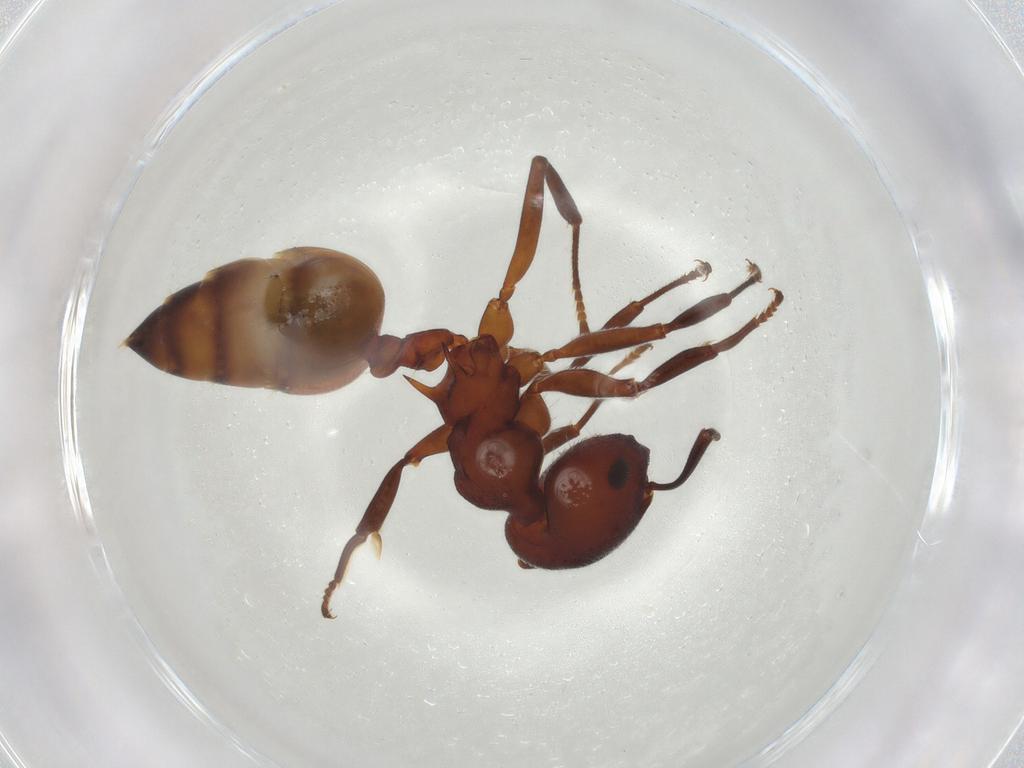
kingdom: Animalia
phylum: Arthropoda
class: Insecta
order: Hymenoptera
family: Formicidae
